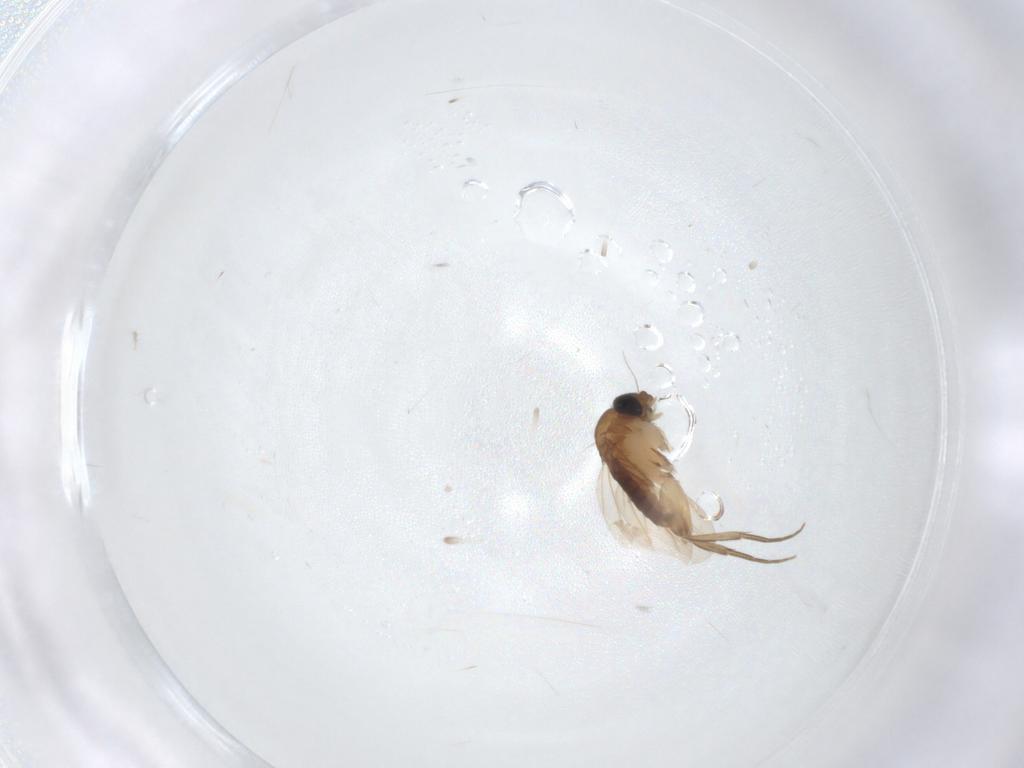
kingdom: Animalia
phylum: Arthropoda
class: Insecta
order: Diptera
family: Phoridae
